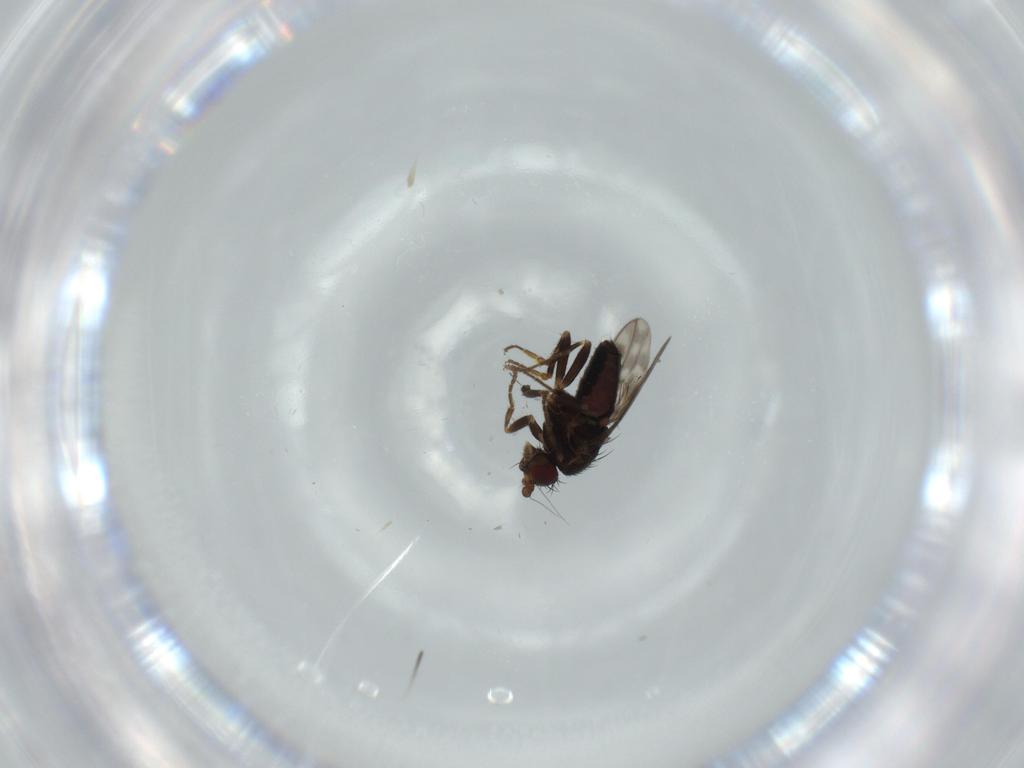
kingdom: Animalia
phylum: Arthropoda
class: Insecta
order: Diptera
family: Sphaeroceridae
